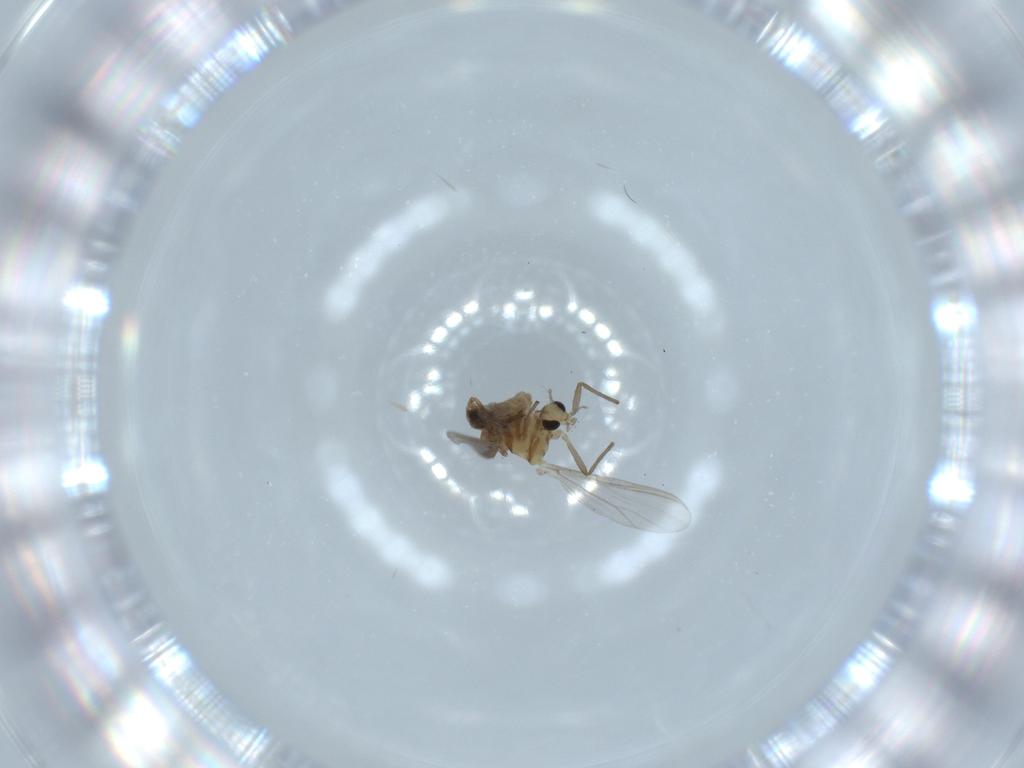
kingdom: Animalia
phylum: Arthropoda
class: Insecta
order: Diptera
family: Chironomidae
